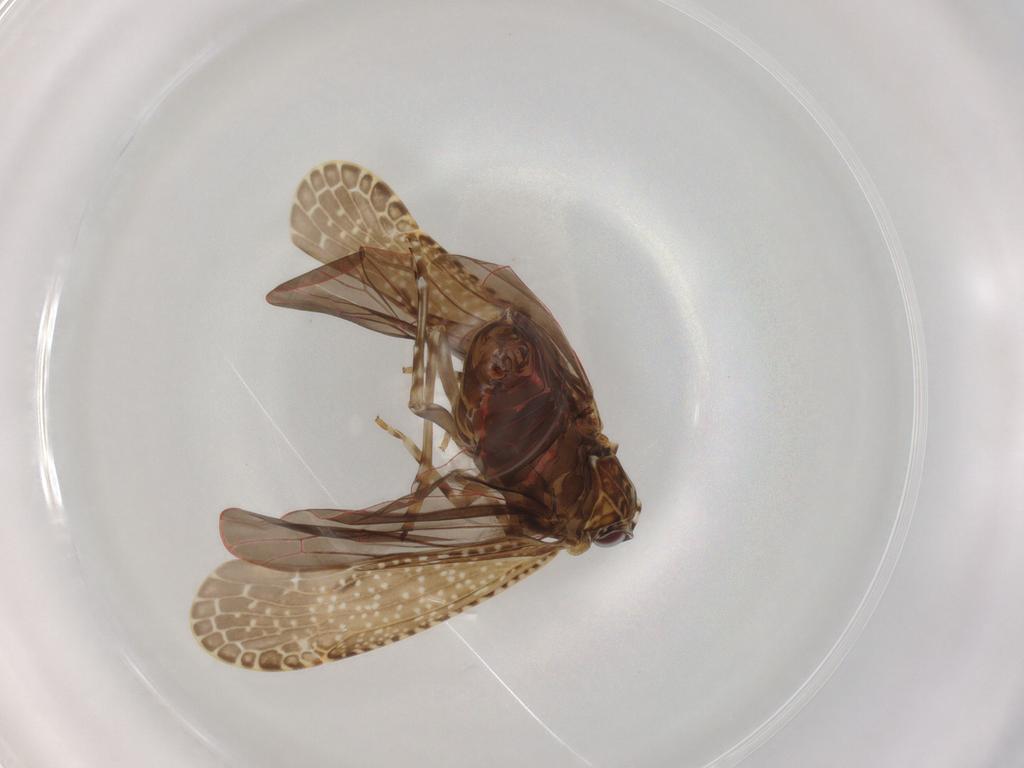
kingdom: Animalia
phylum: Arthropoda
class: Insecta
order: Hemiptera
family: Achilidae
